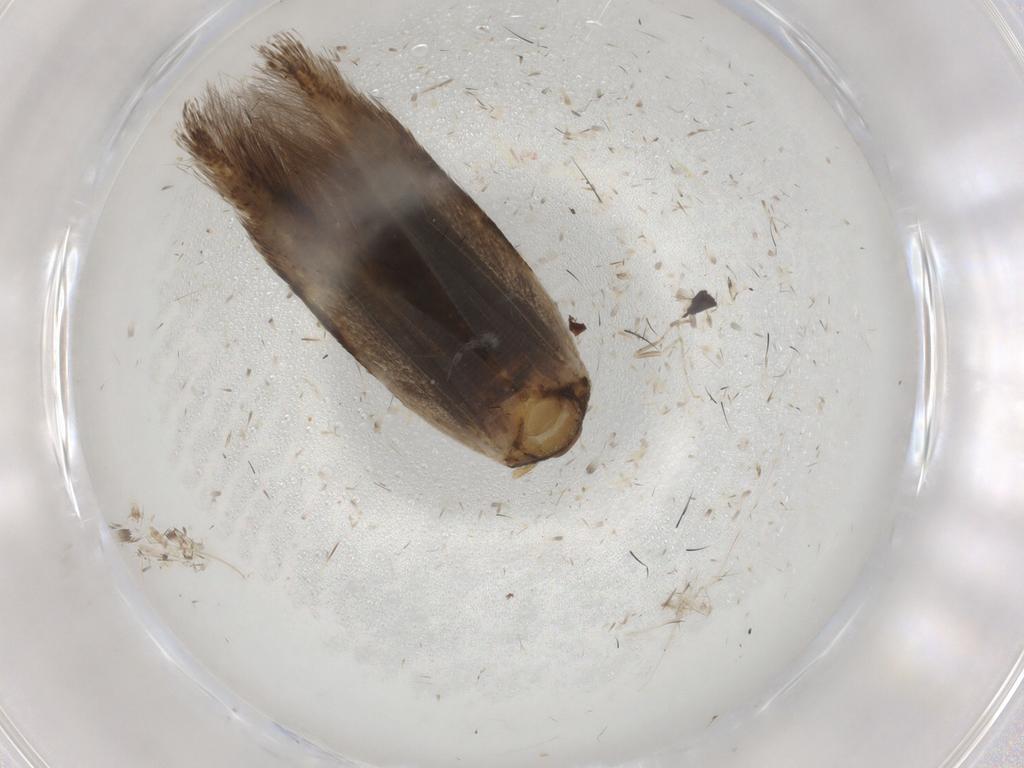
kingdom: Animalia
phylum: Arthropoda
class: Insecta
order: Lepidoptera
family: Cosmopterigidae
